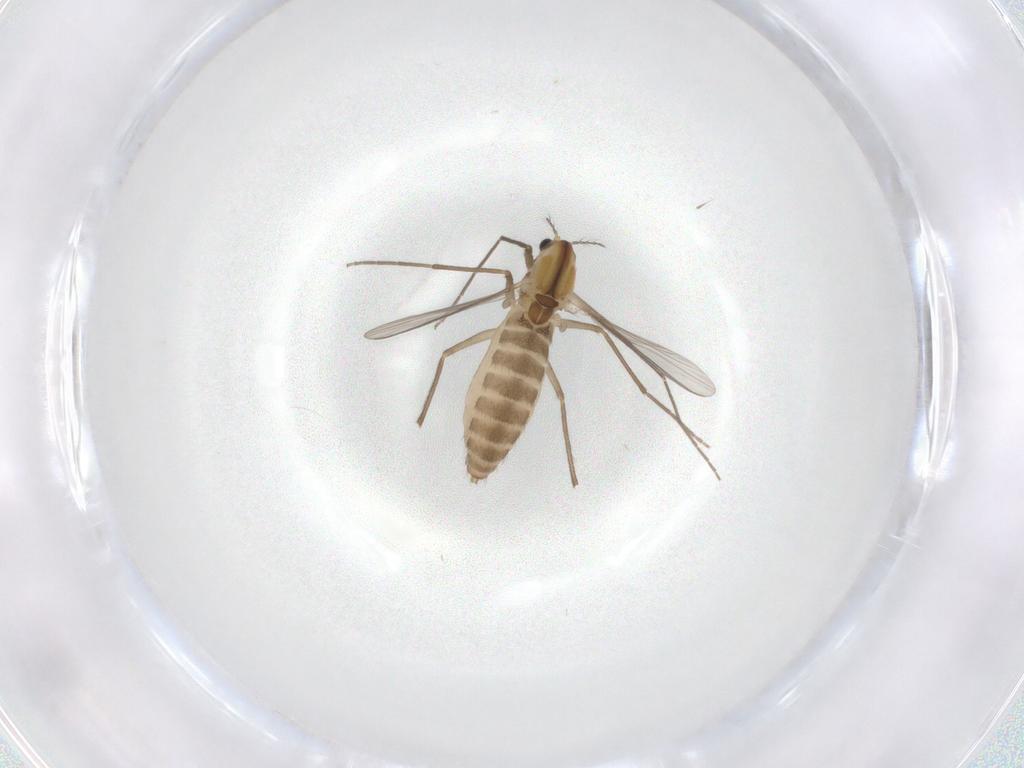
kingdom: Animalia
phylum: Arthropoda
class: Insecta
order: Diptera
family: Chironomidae
